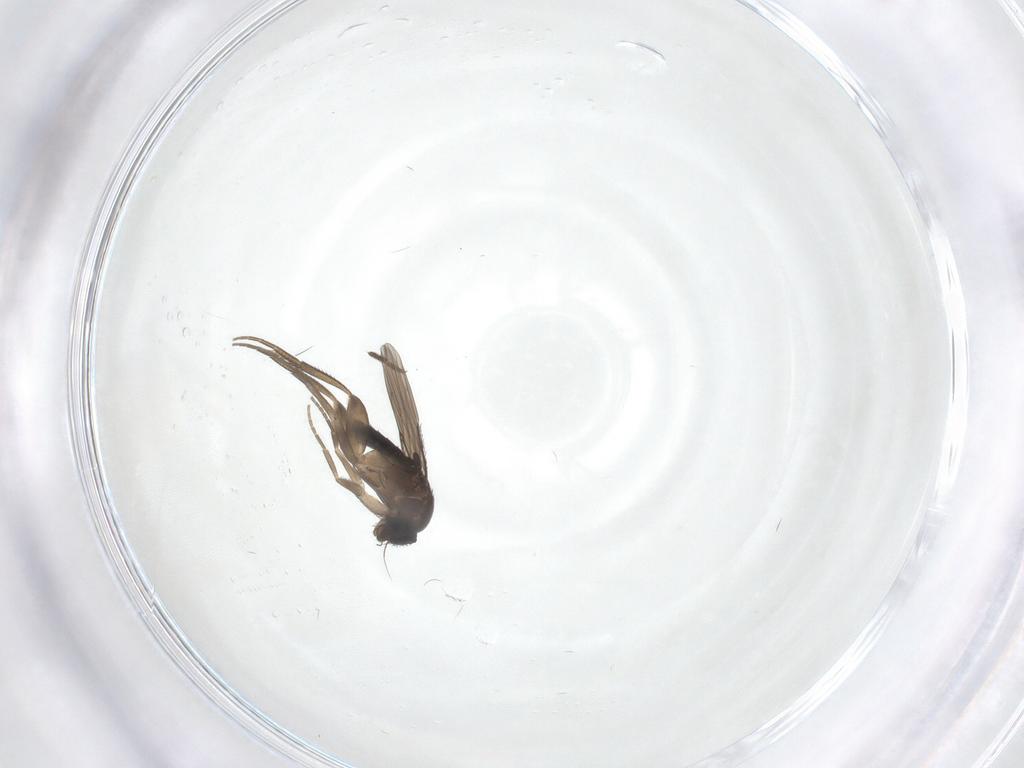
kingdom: Animalia
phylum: Arthropoda
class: Insecta
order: Diptera
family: Phoridae
